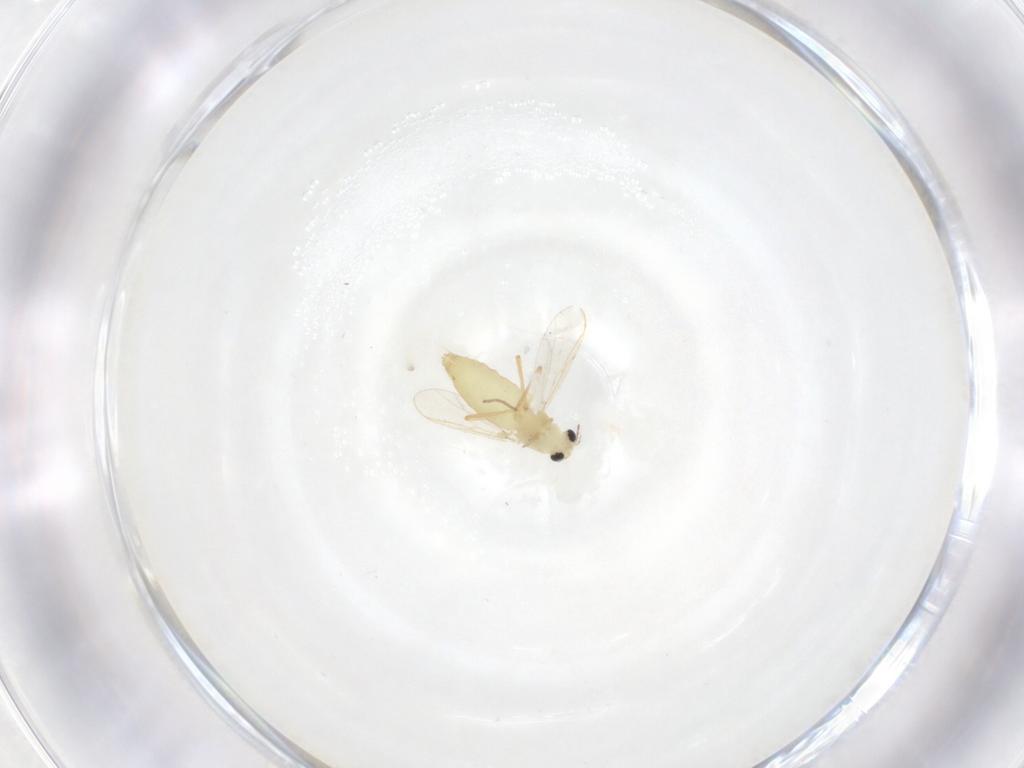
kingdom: Animalia
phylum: Arthropoda
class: Insecta
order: Diptera
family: Chironomidae
